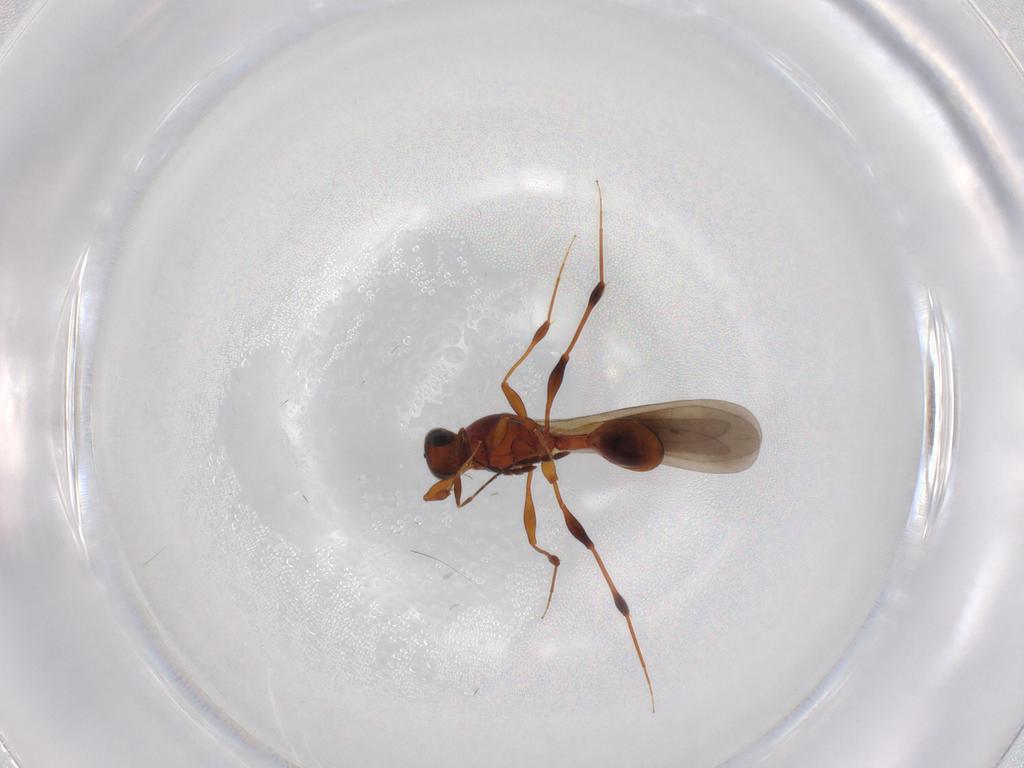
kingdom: Animalia
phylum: Arthropoda
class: Insecta
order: Hymenoptera
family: Platygastridae
